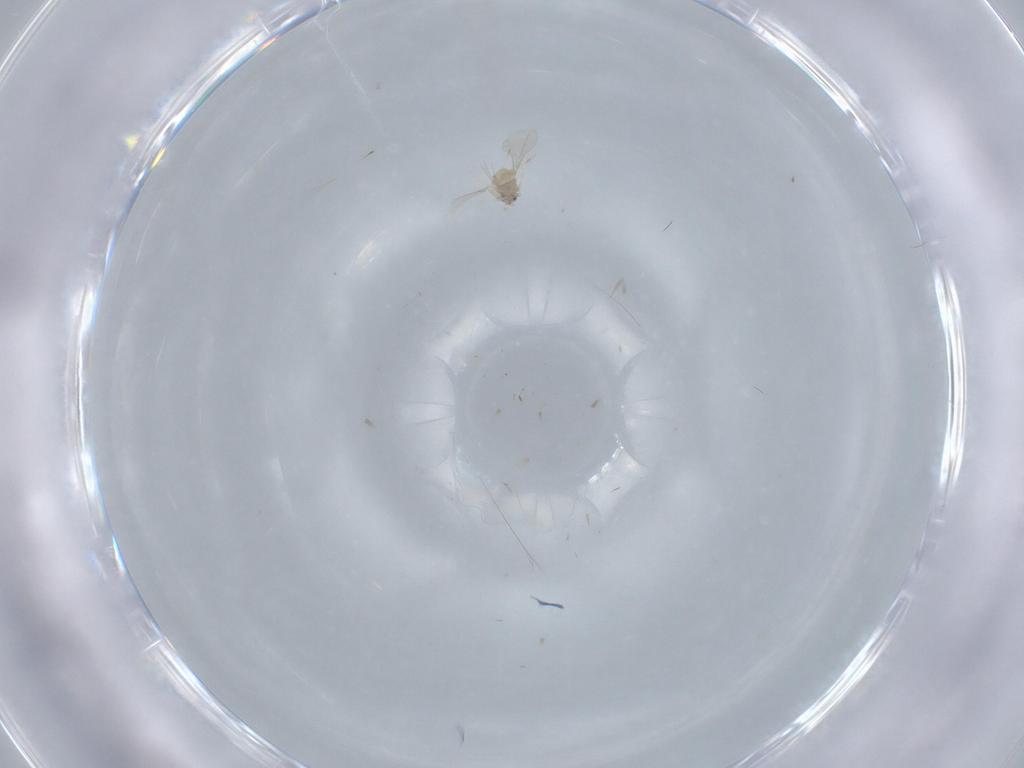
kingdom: Animalia
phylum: Arthropoda
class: Insecta
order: Diptera
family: Cecidomyiidae
